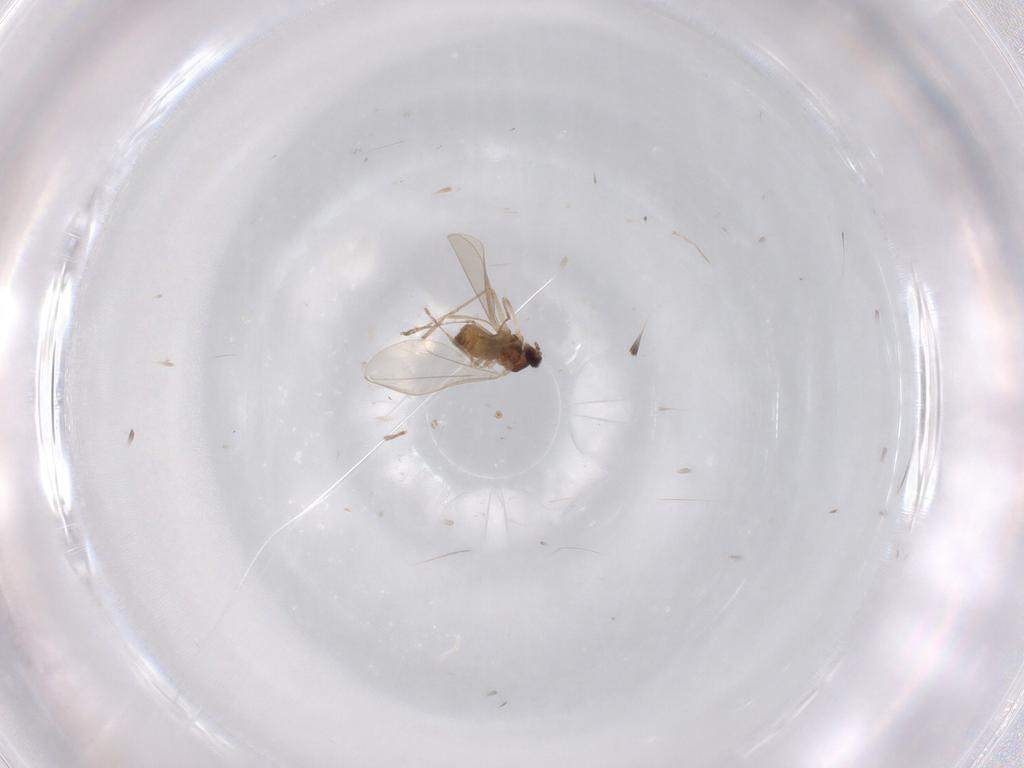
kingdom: Animalia
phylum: Arthropoda
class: Insecta
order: Diptera
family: Cecidomyiidae
